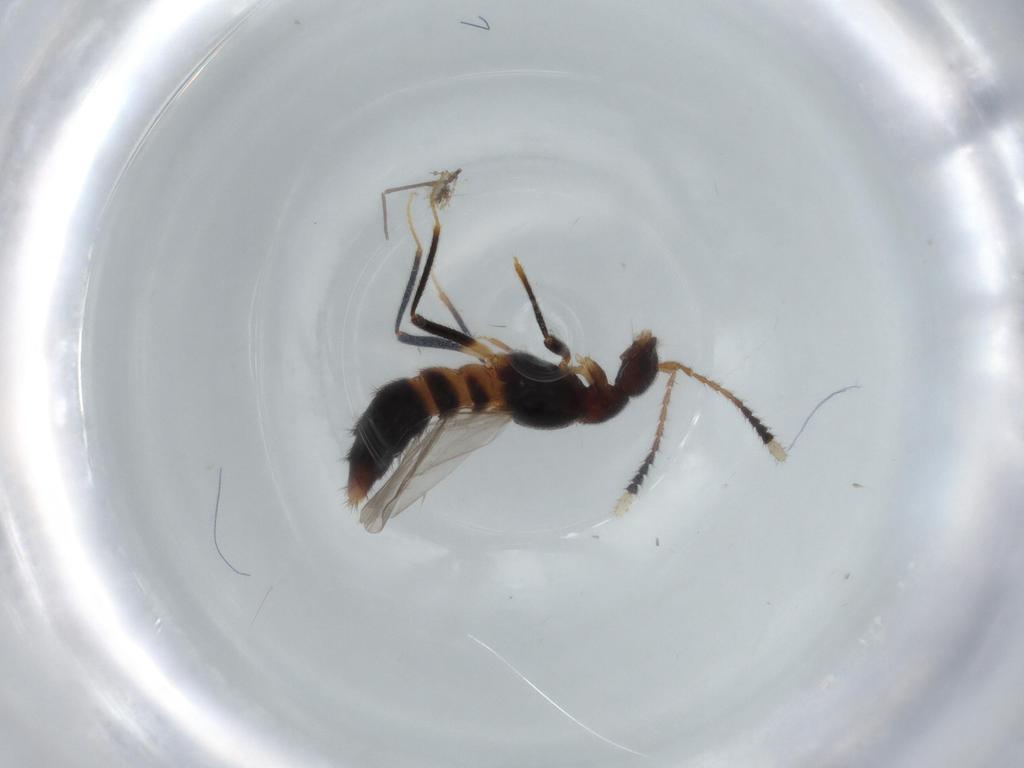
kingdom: Animalia
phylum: Arthropoda
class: Insecta
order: Coleoptera
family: Staphylinidae
